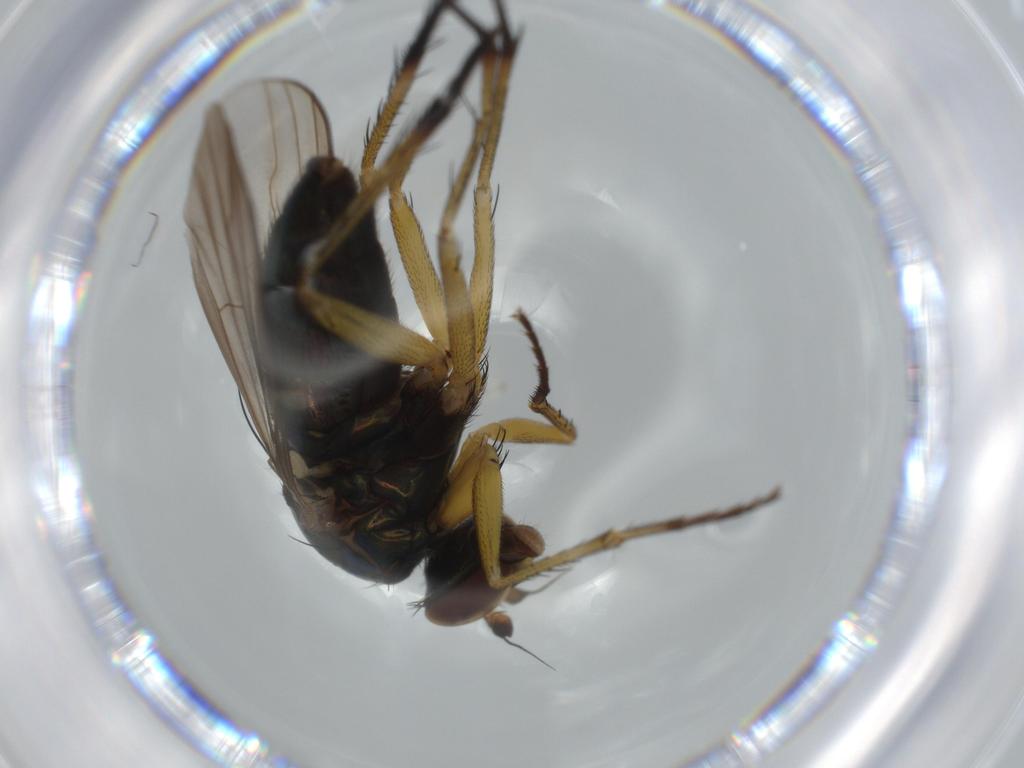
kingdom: Animalia
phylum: Arthropoda
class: Insecta
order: Diptera
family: Dolichopodidae
